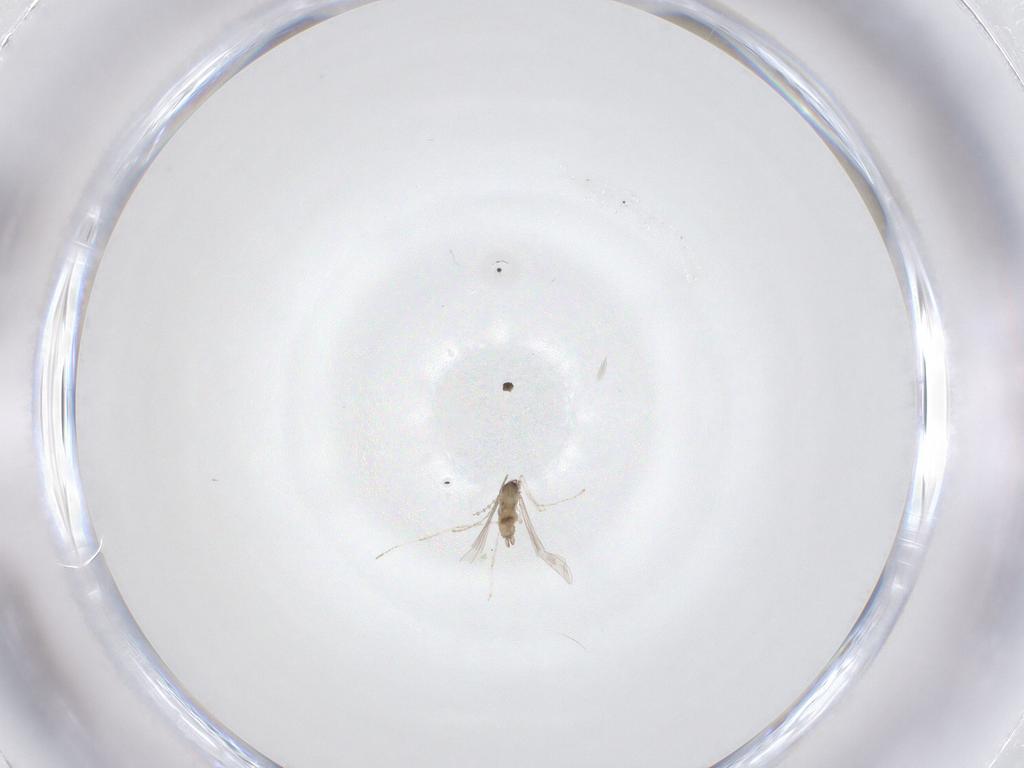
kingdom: Animalia
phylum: Arthropoda
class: Insecta
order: Diptera
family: Cecidomyiidae
